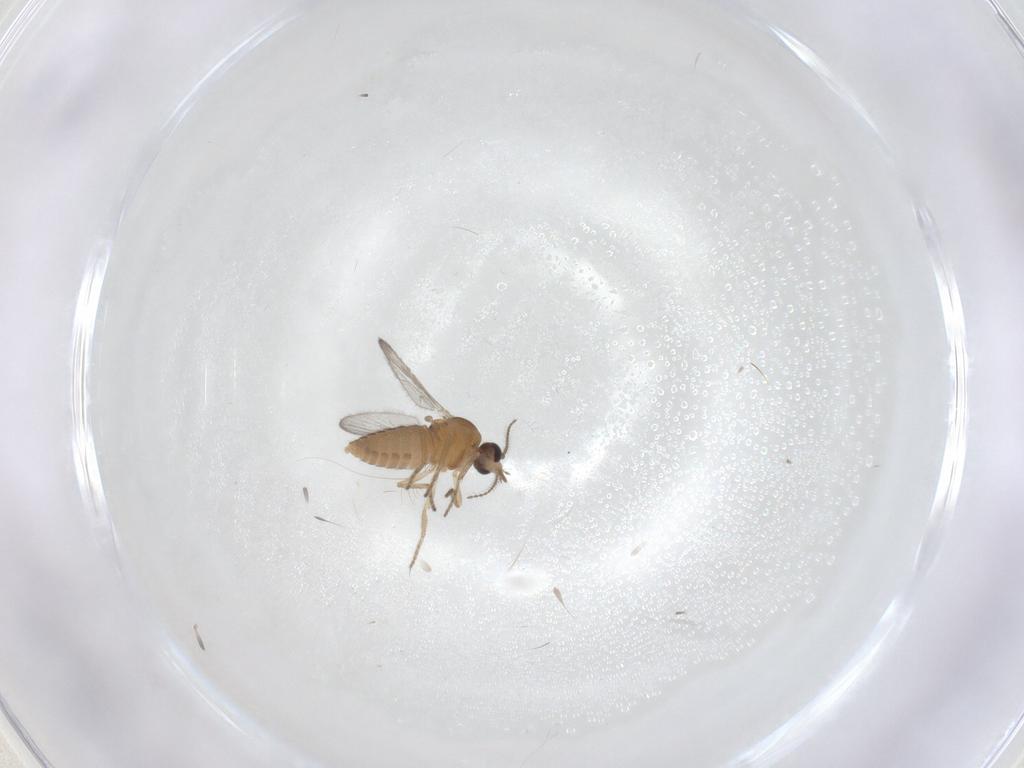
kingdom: Animalia
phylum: Arthropoda
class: Insecta
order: Diptera
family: Ceratopogonidae
